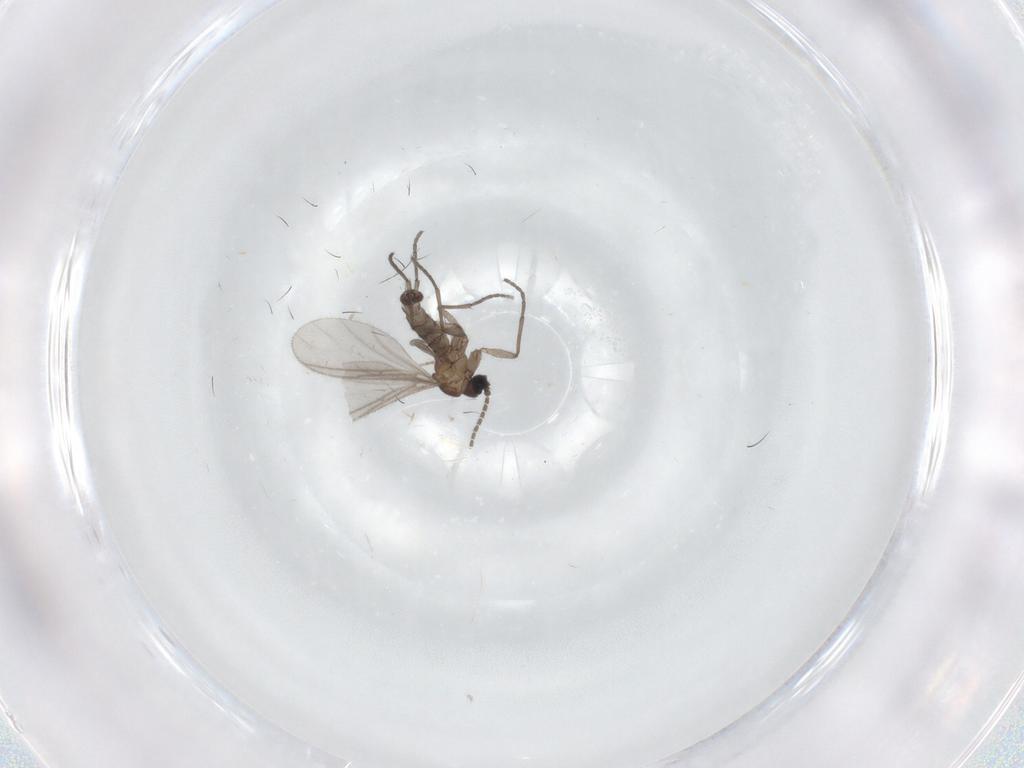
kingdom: Animalia
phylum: Arthropoda
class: Insecta
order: Diptera
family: Sciaridae
